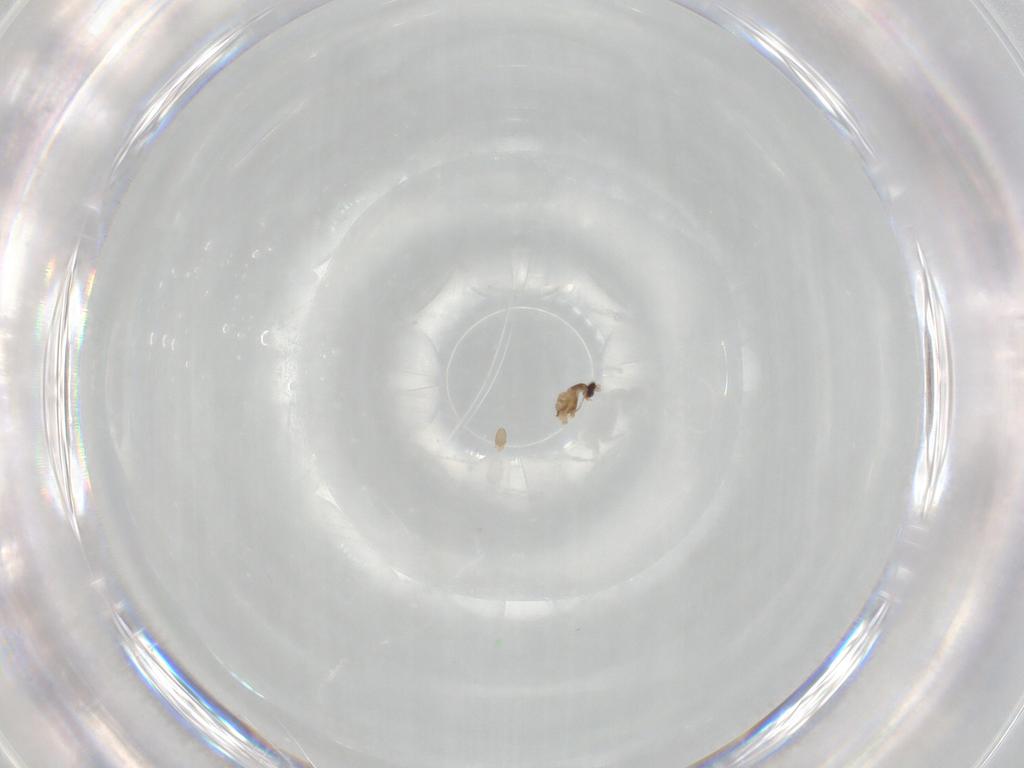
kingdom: Animalia
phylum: Arthropoda
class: Insecta
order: Diptera
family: Cecidomyiidae
